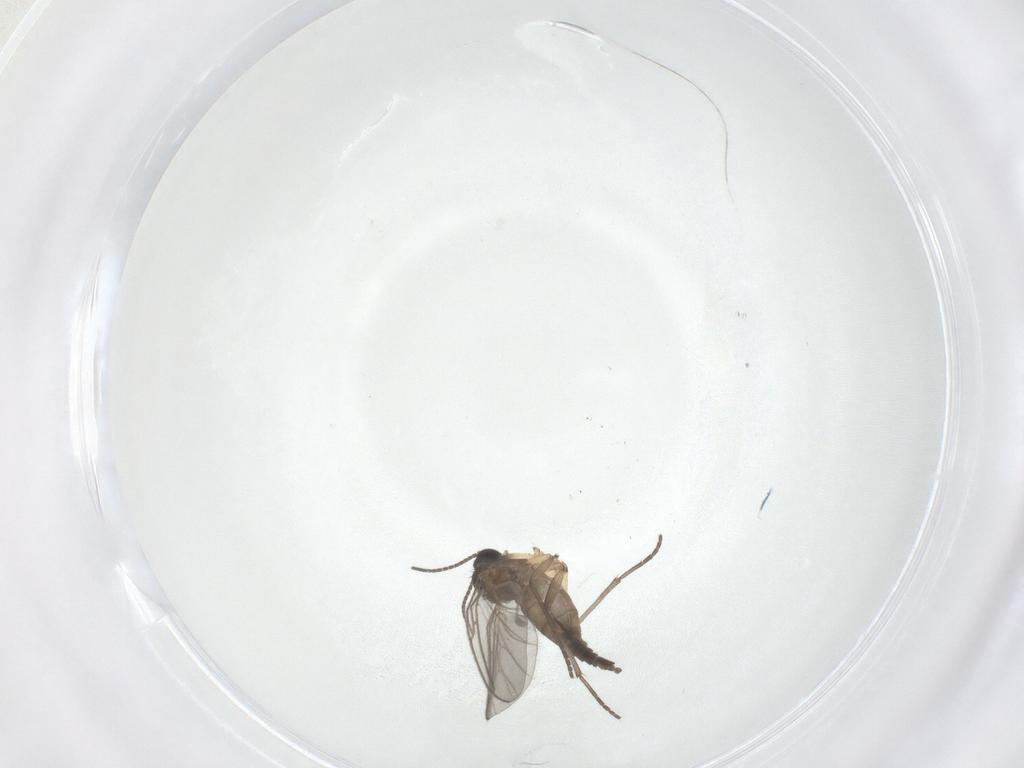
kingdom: Animalia
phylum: Arthropoda
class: Insecta
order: Diptera
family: Sciaridae
